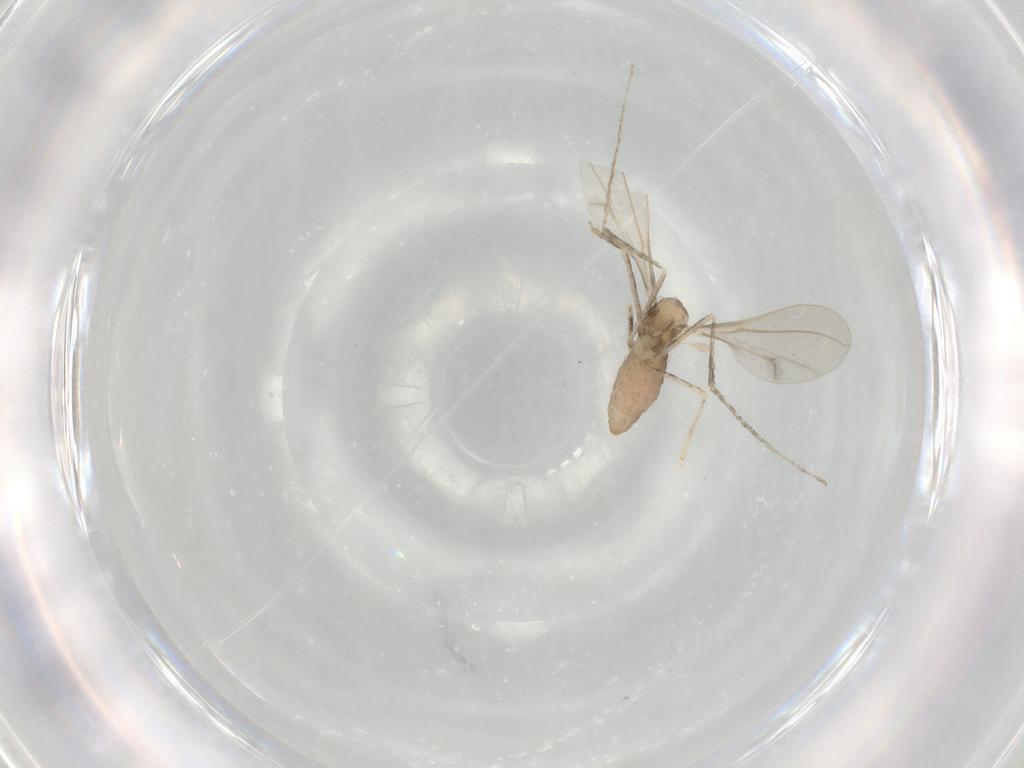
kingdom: Animalia
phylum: Arthropoda
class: Insecta
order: Diptera
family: Cecidomyiidae
